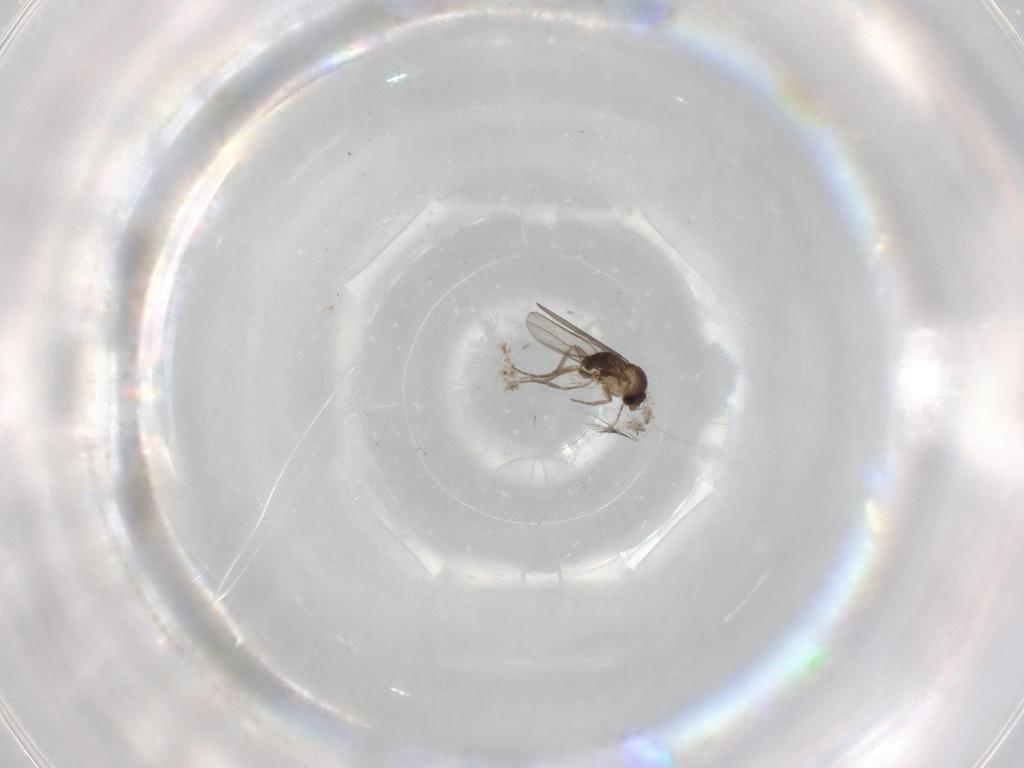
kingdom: Animalia
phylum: Arthropoda
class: Insecta
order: Diptera
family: Phoridae
